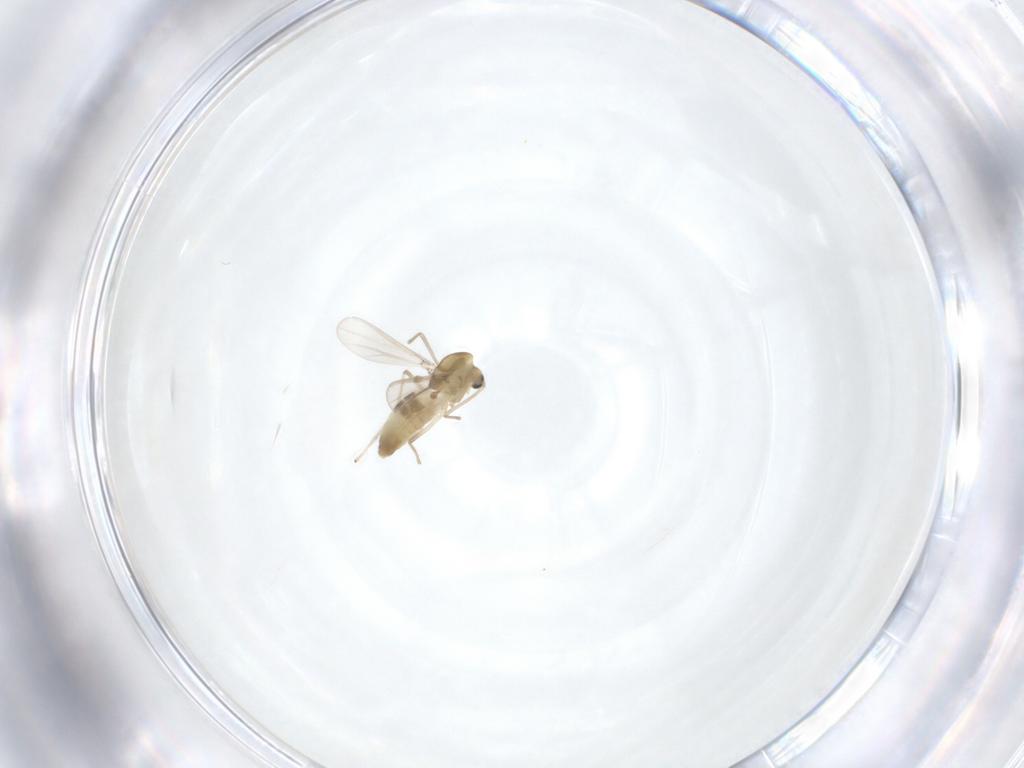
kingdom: Animalia
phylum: Arthropoda
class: Insecta
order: Diptera
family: Chironomidae
